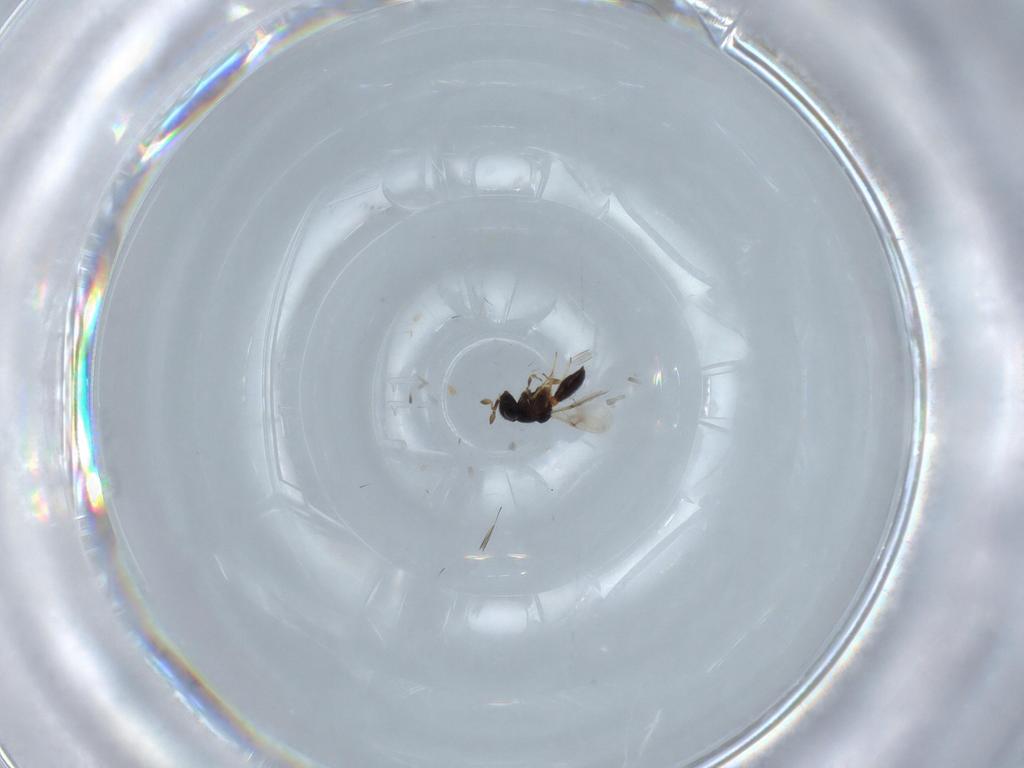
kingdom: Animalia
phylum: Arthropoda
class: Insecta
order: Hymenoptera
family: Scelionidae
